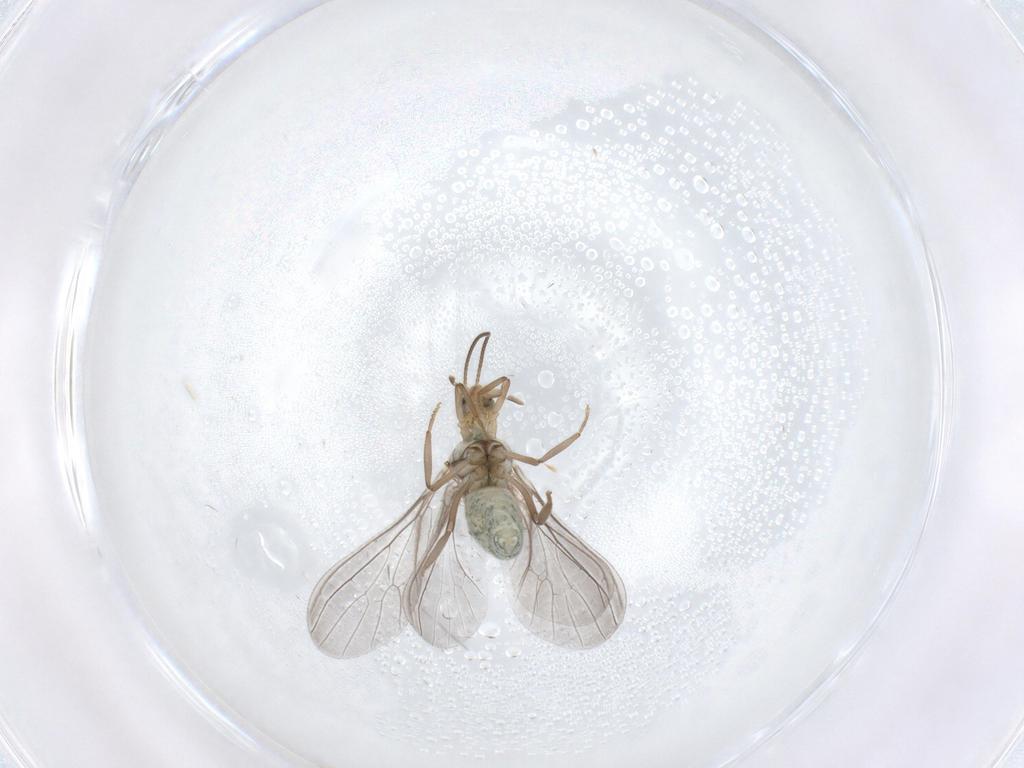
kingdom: Animalia
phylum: Arthropoda
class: Insecta
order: Neuroptera
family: Coniopterygidae
